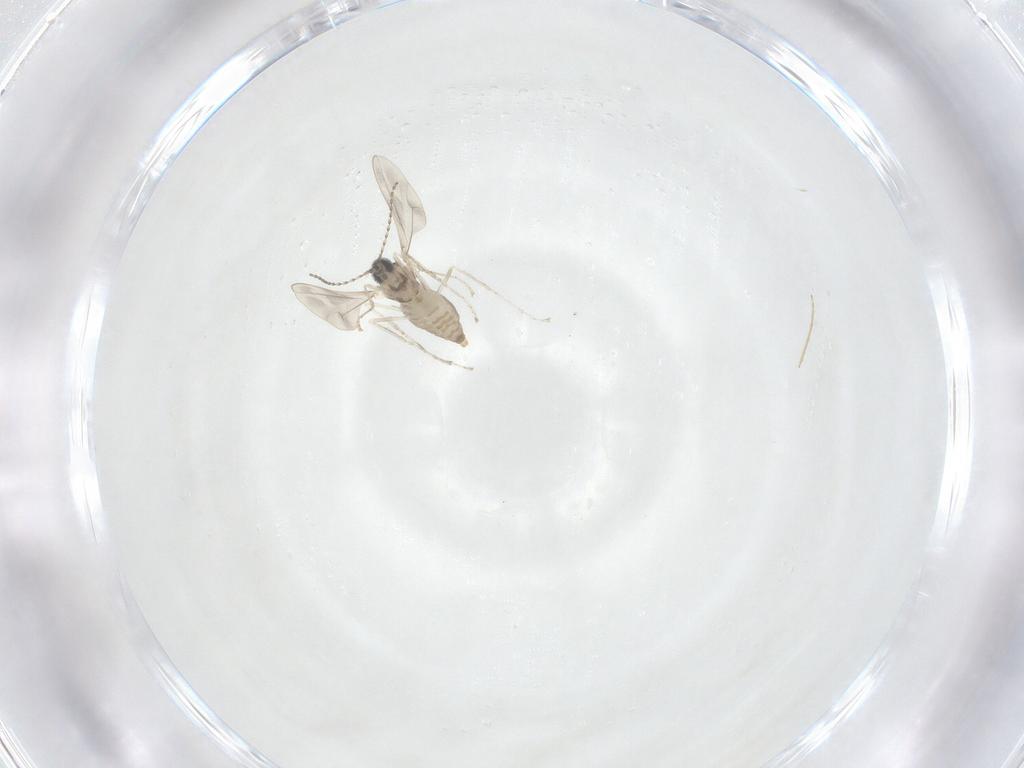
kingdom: Animalia
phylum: Arthropoda
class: Insecta
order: Diptera
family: Cecidomyiidae
